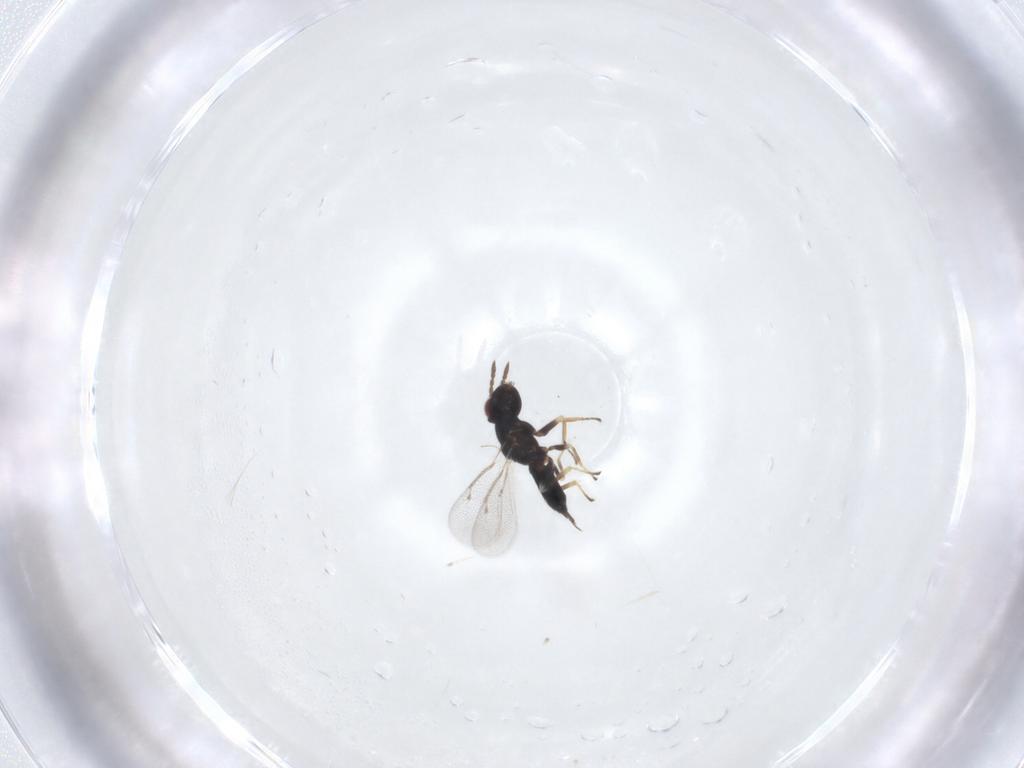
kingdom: Animalia
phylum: Arthropoda
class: Insecta
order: Hymenoptera
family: Eulophidae
